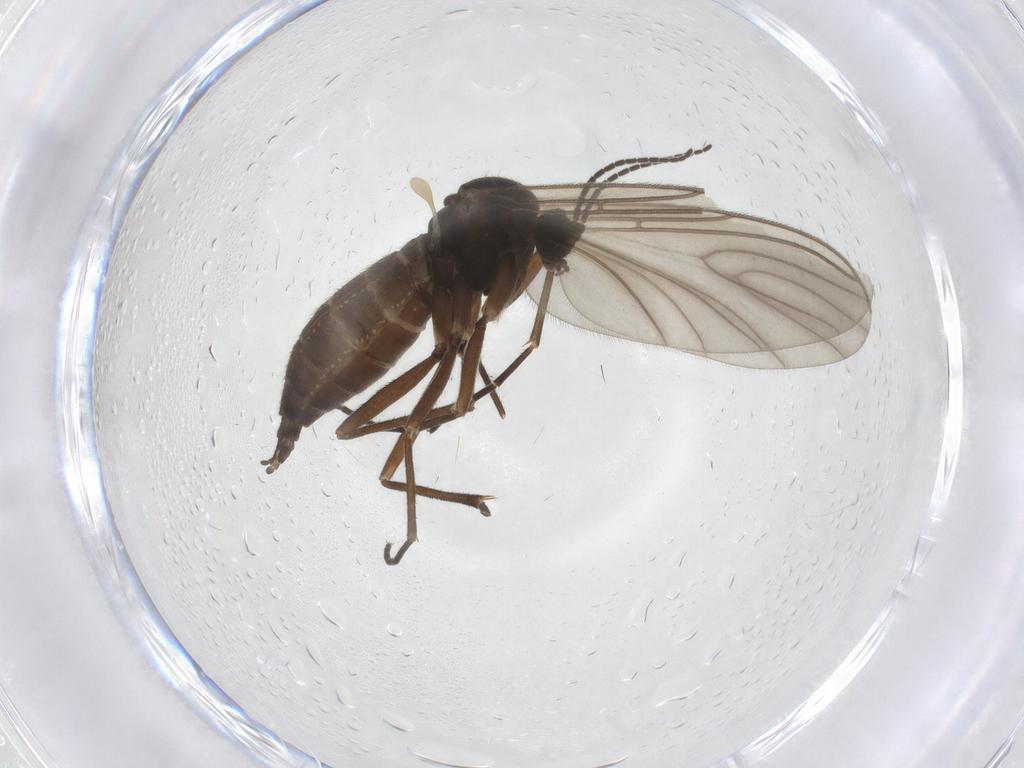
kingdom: Animalia
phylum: Arthropoda
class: Insecta
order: Diptera
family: Sciaridae
